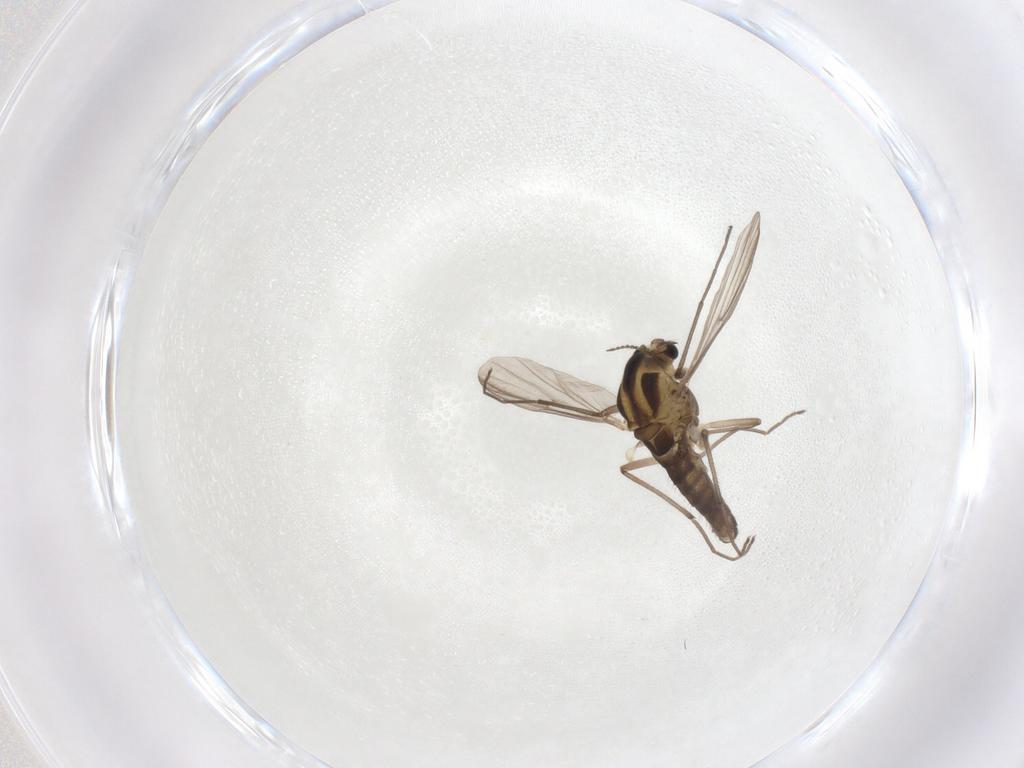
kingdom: Animalia
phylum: Arthropoda
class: Insecta
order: Diptera
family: Chironomidae
